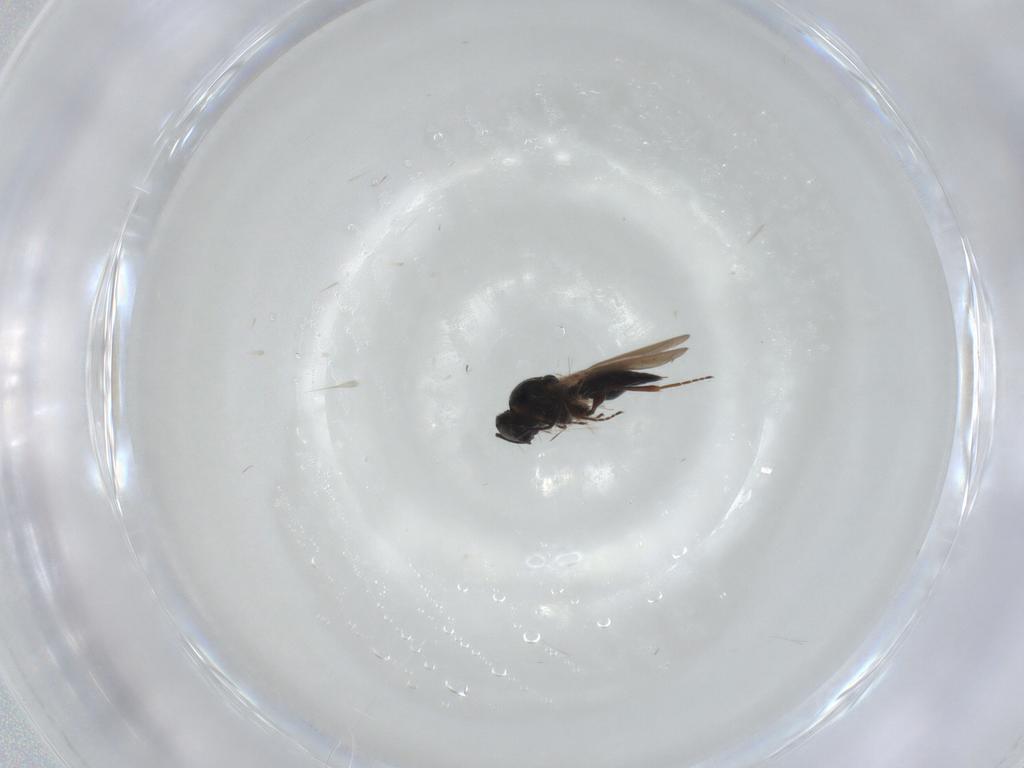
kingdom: Animalia
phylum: Arthropoda
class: Insecta
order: Hymenoptera
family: Platygastridae
